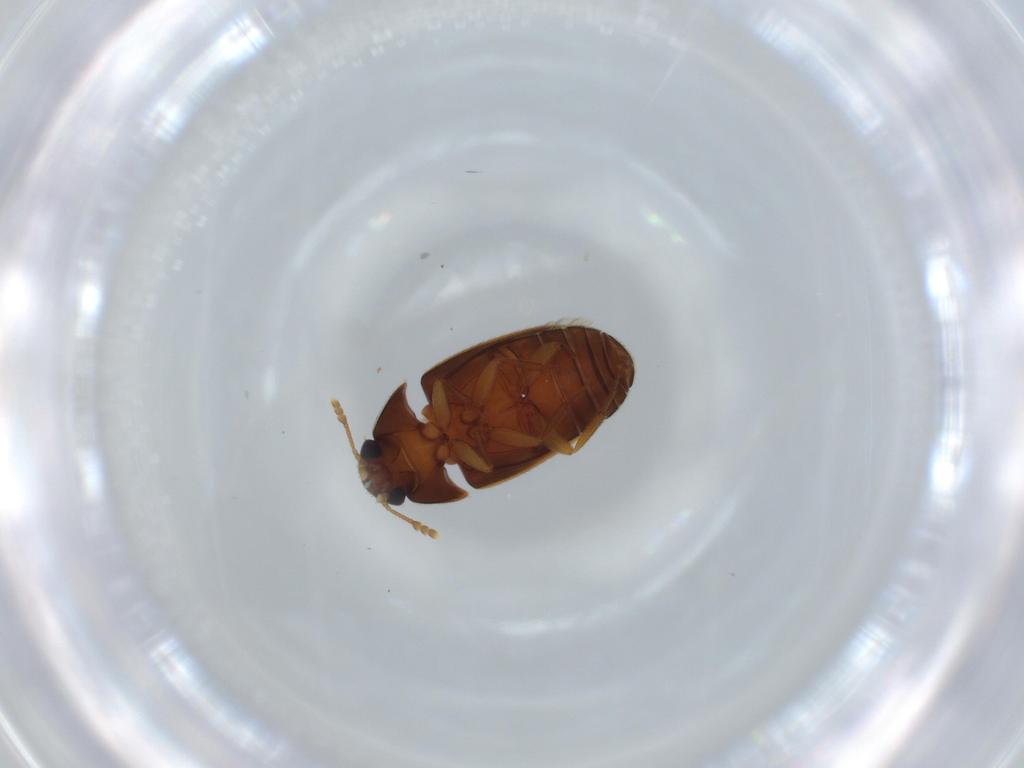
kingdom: Animalia
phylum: Arthropoda
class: Insecta
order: Coleoptera
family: Mycetophagidae
